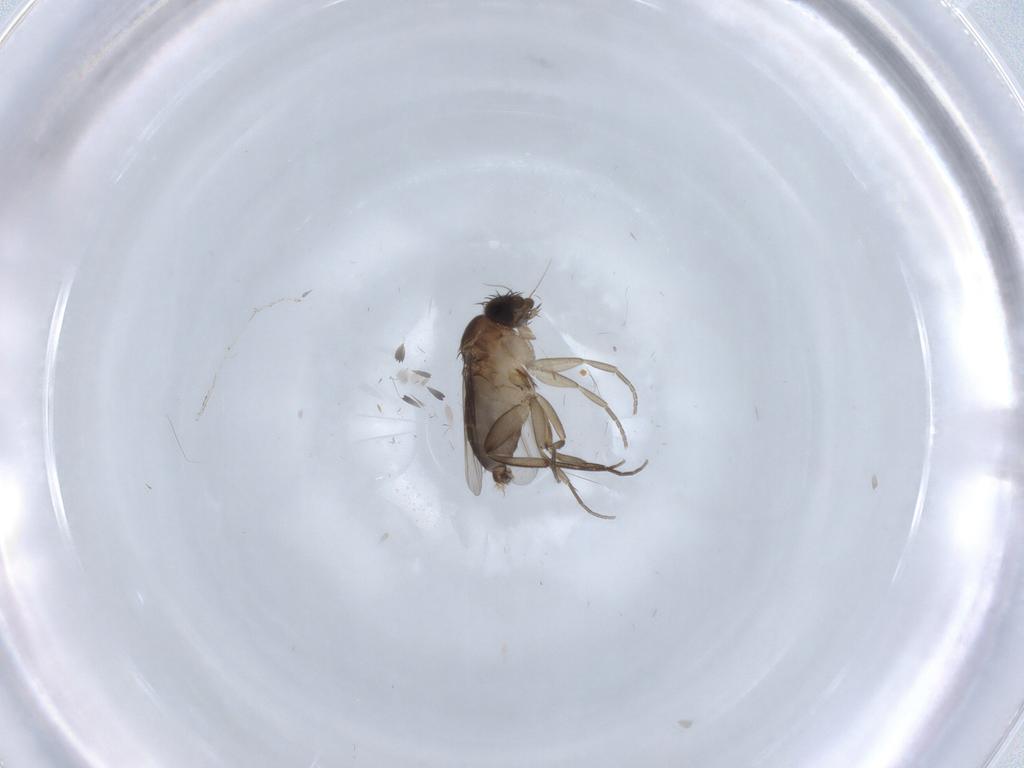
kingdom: Animalia
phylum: Arthropoda
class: Insecta
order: Diptera
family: Phoridae
